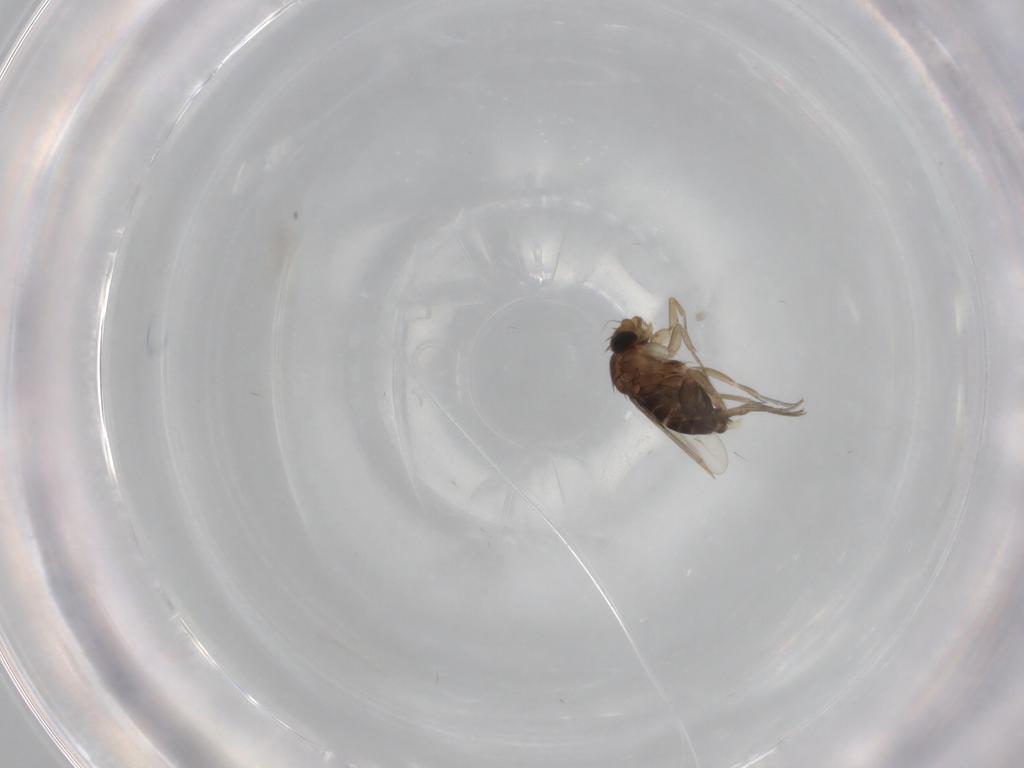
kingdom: Animalia
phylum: Arthropoda
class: Insecta
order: Diptera
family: Phoridae
